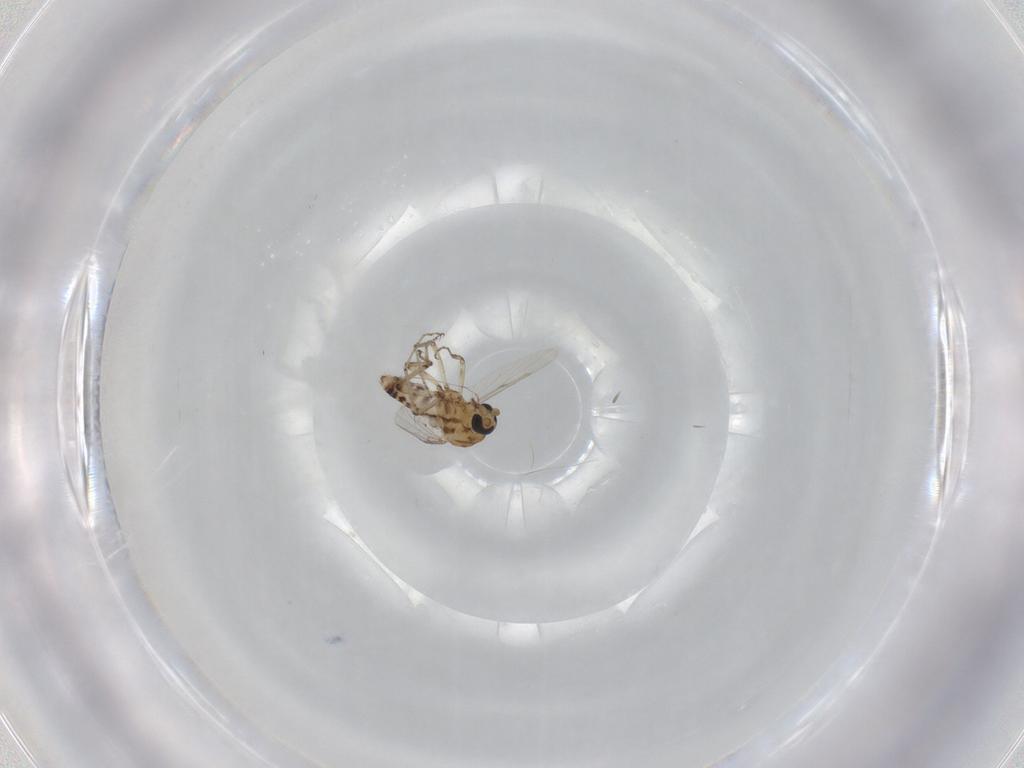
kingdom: Animalia
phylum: Arthropoda
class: Insecta
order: Diptera
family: Ceratopogonidae
